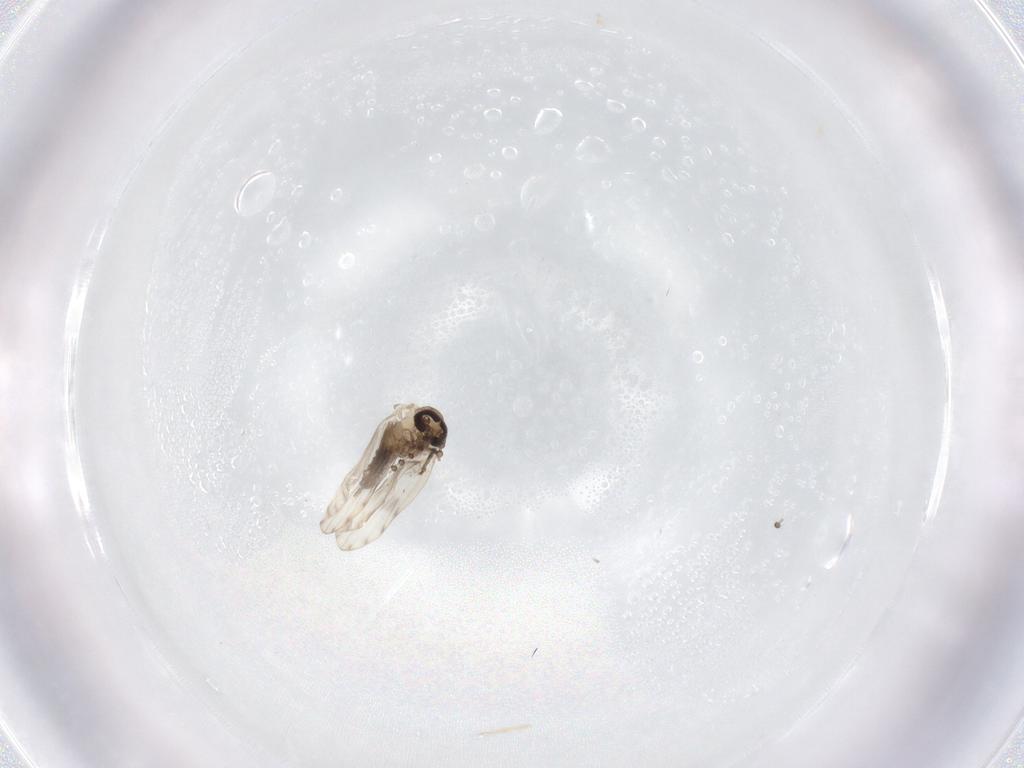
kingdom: Animalia
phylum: Arthropoda
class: Insecta
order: Diptera
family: Psychodidae
